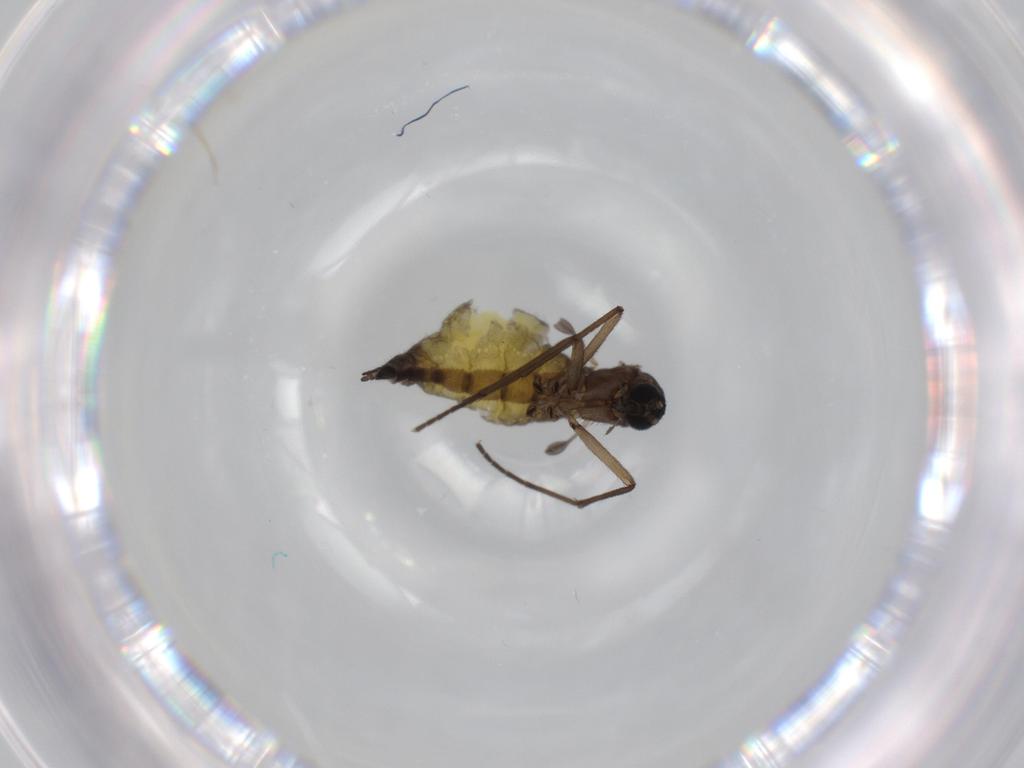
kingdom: Animalia
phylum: Arthropoda
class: Insecta
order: Diptera
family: Sciaridae
